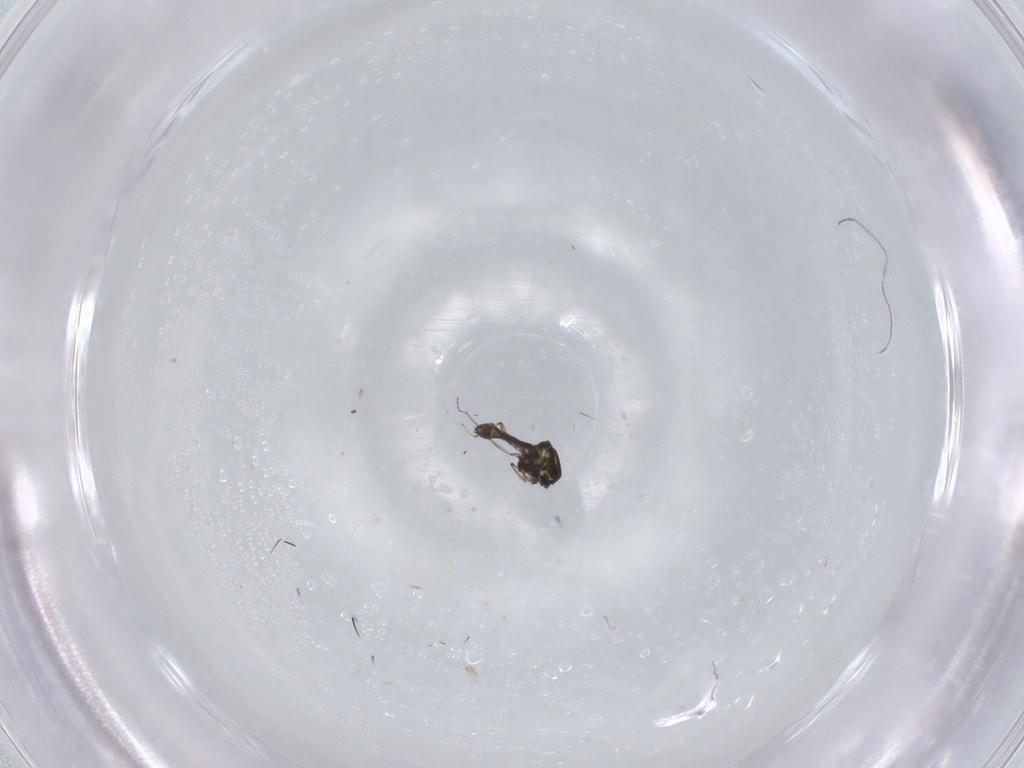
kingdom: Animalia
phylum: Arthropoda
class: Insecta
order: Diptera
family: Ceratopogonidae
